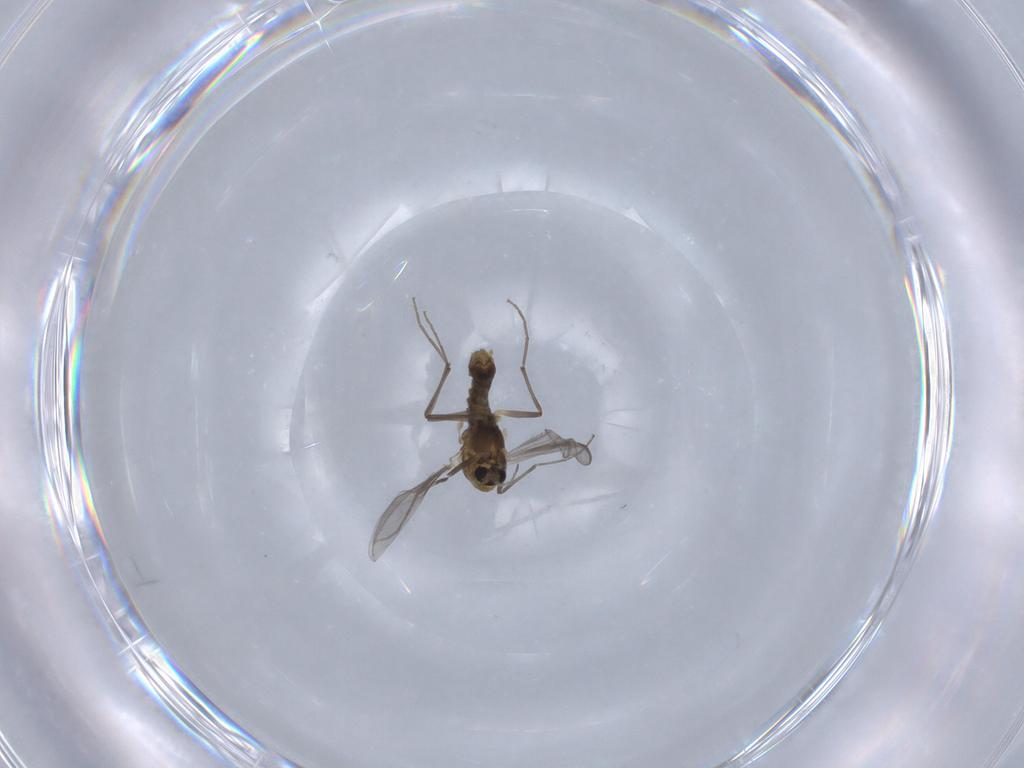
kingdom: Animalia
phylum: Arthropoda
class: Insecta
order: Diptera
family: Chironomidae
